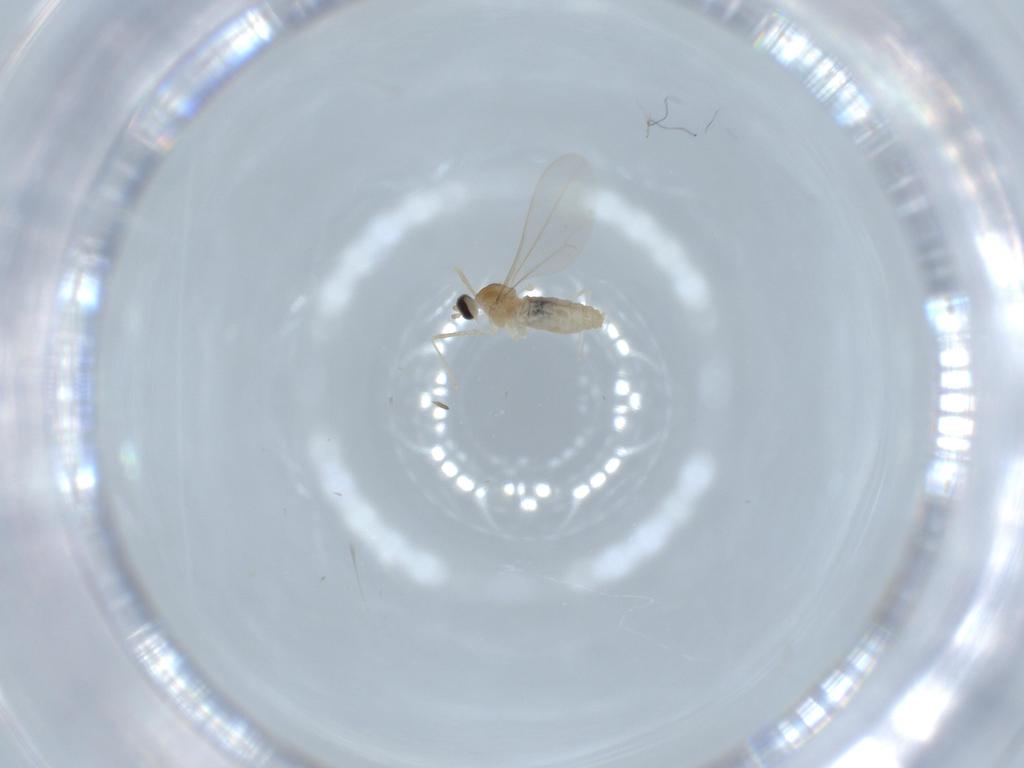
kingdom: Animalia
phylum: Arthropoda
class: Insecta
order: Diptera
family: Cecidomyiidae
